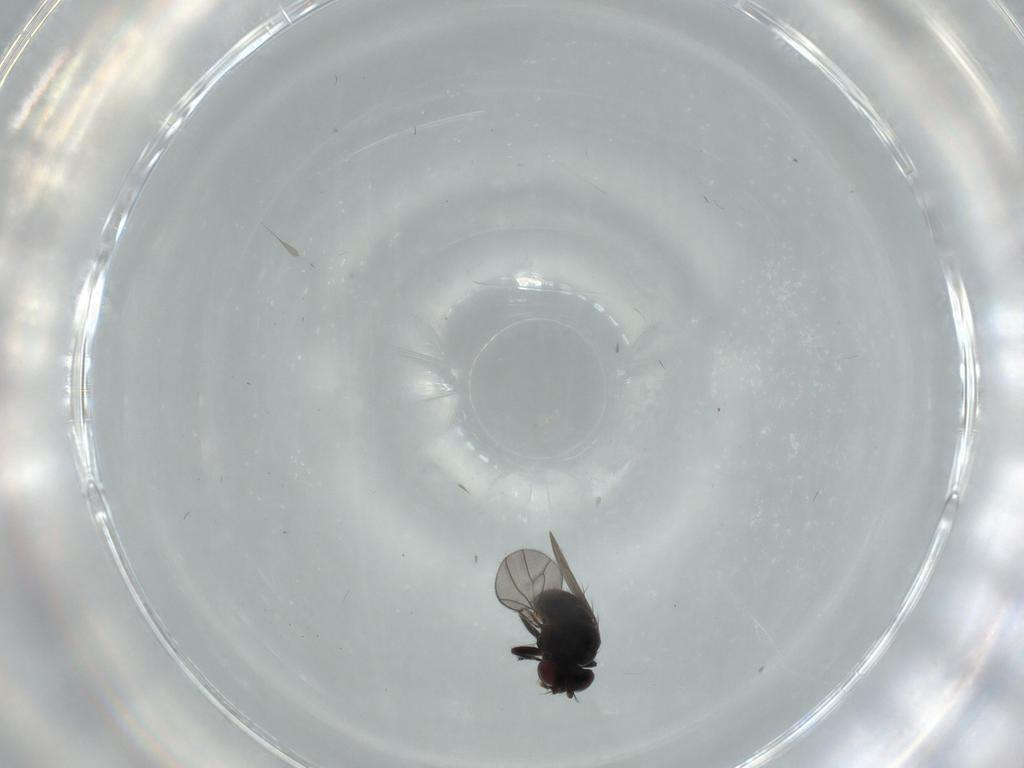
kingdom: Animalia
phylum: Arthropoda
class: Insecta
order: Diptera
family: Ephydridae
